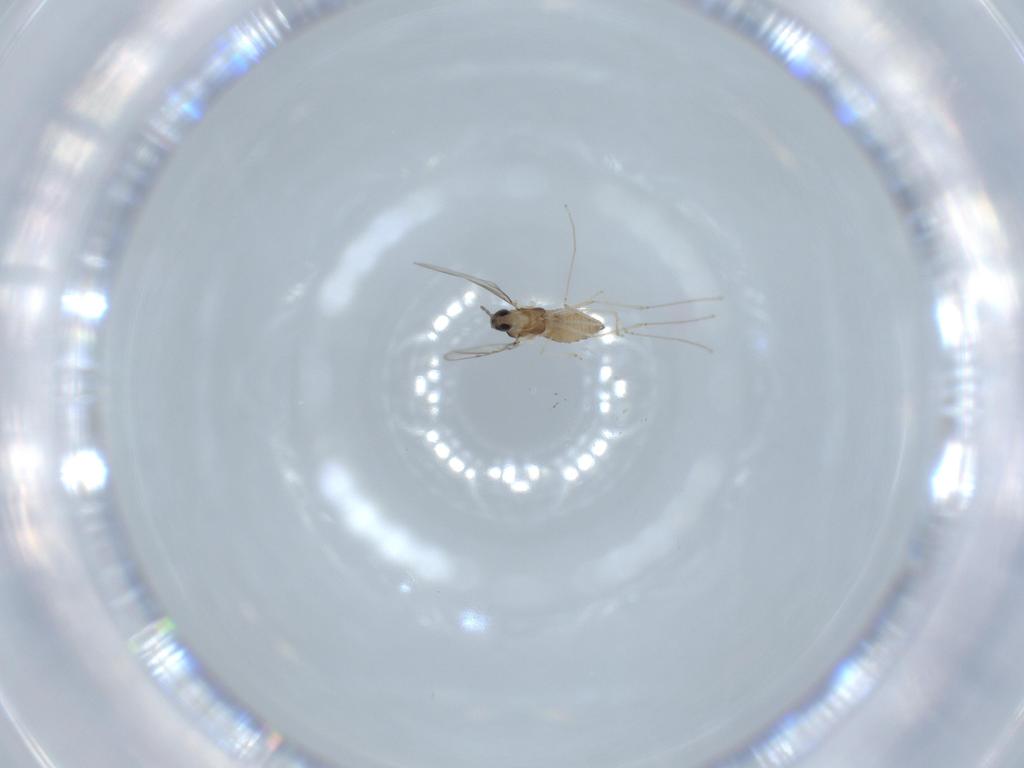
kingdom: Animalia
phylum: Arthropoda
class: Insecta
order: Diptera
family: Cecidomyiidae
